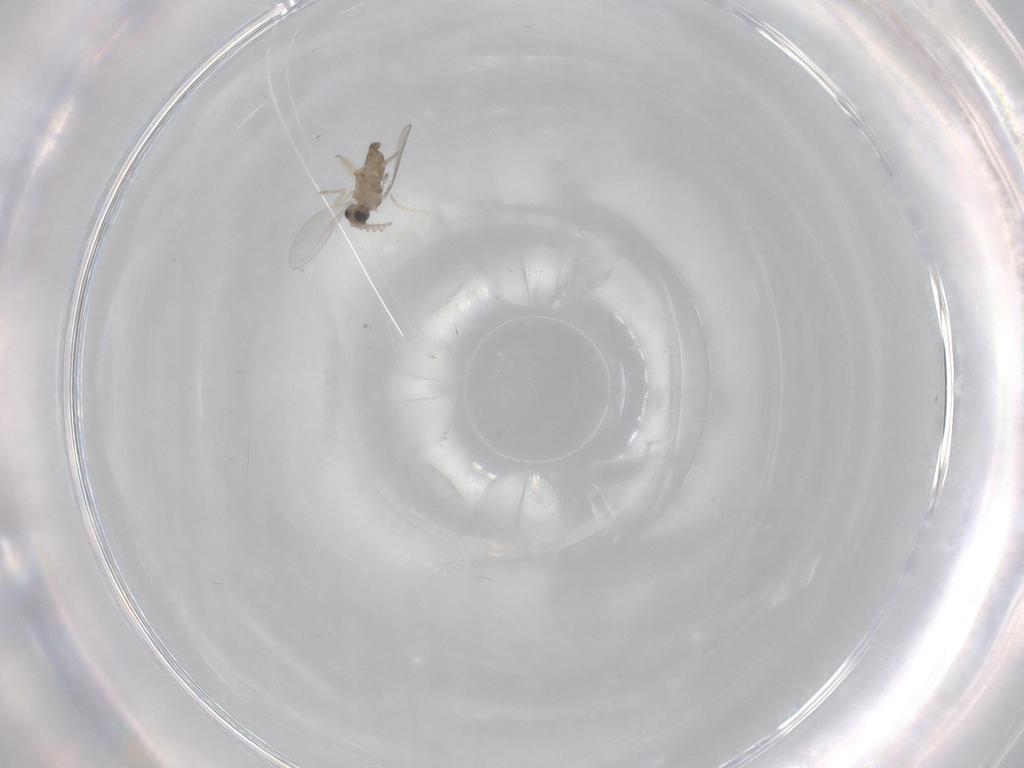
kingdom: Animalia
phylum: Arthropoda
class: Insecta
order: Diptera
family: Cecidomyiidae
